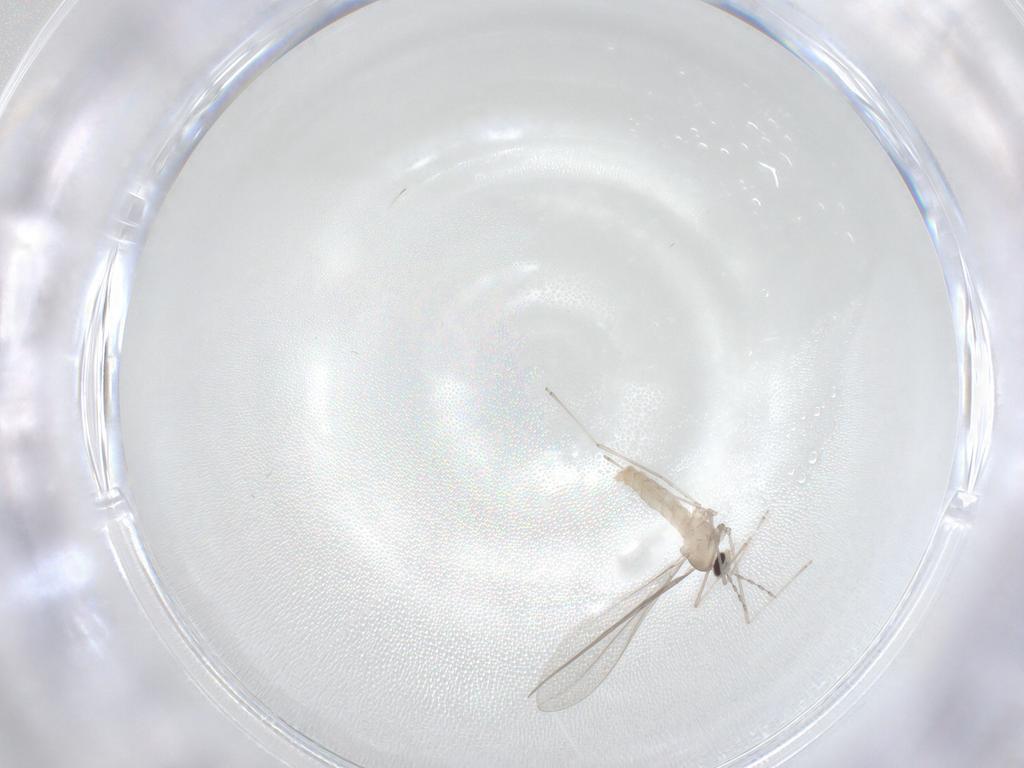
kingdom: Animalia
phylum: Arthropoda
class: Insecta
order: Diptera
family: Cecidomyiidae
